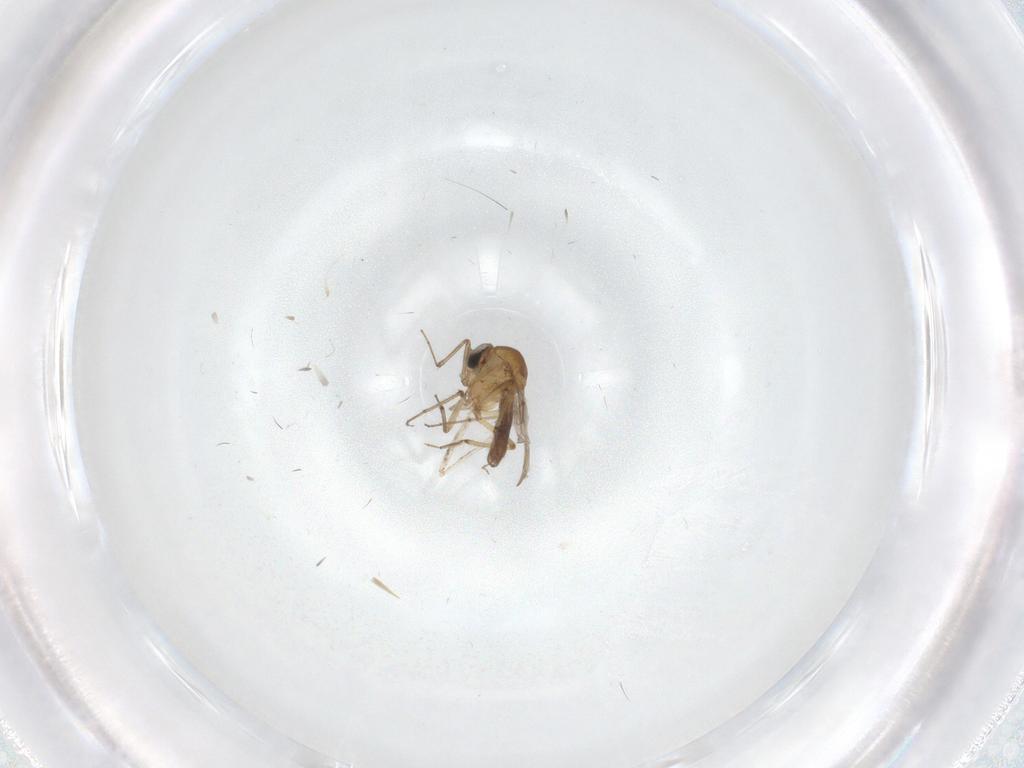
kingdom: Animalia
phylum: Arthropoda
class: Insecta
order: Diptera
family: Cecidomyiidae
